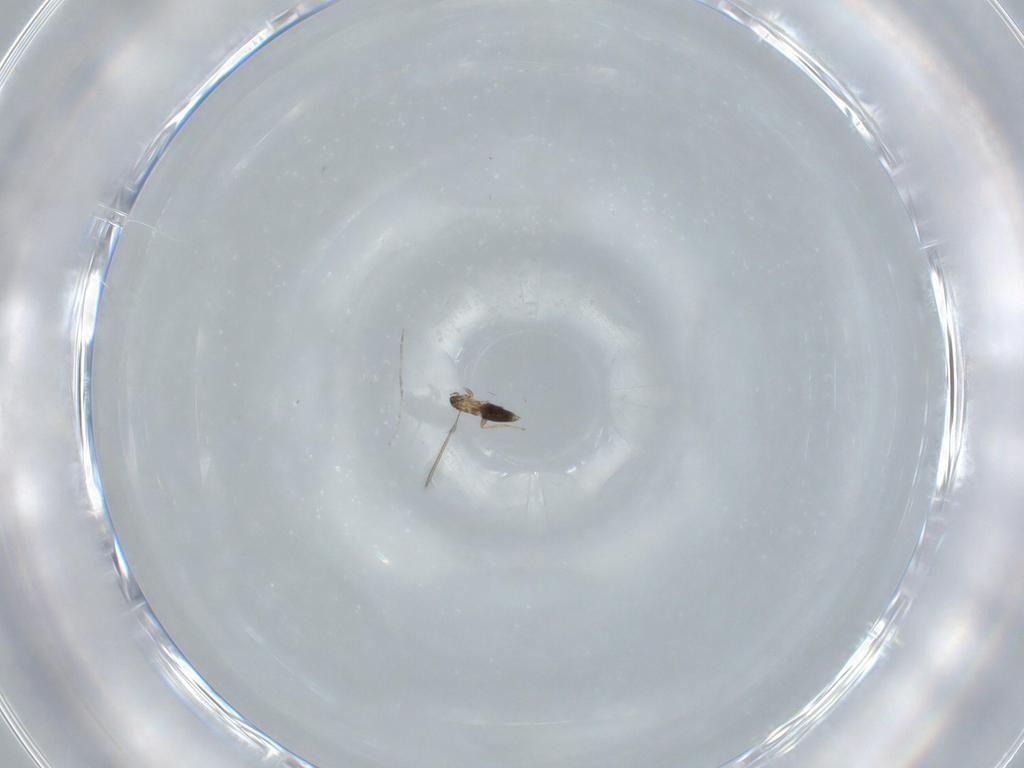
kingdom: Animalia
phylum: Arthropoda
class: Insecta
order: Diptera
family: Cecidomyiidae
